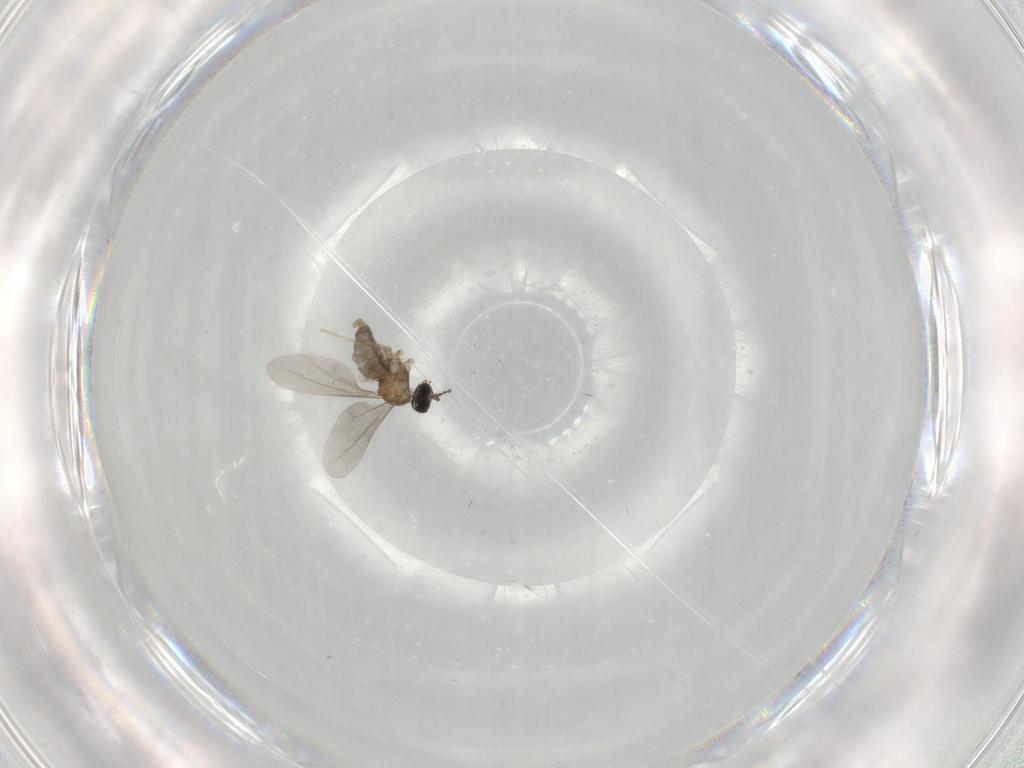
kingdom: Animalia
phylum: Arthropoda
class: Insecta
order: Diptera
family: Cecidomyiidae
